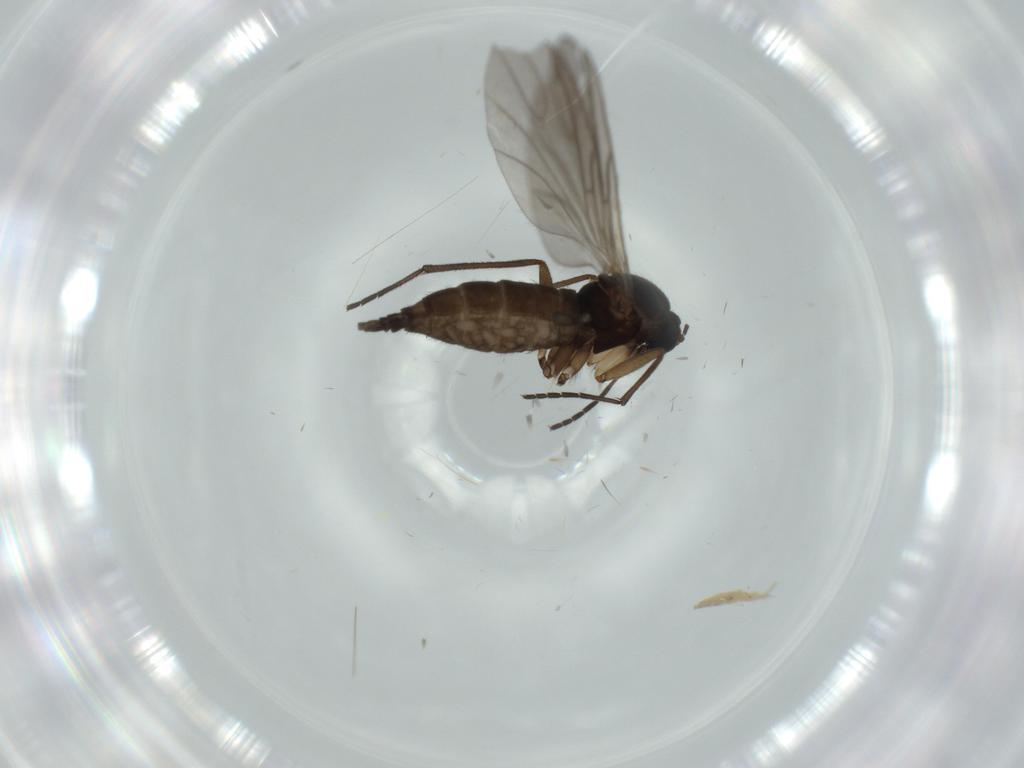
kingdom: Animalia
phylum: Arthropoda
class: Insecta
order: Diptera
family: Sciaridae
